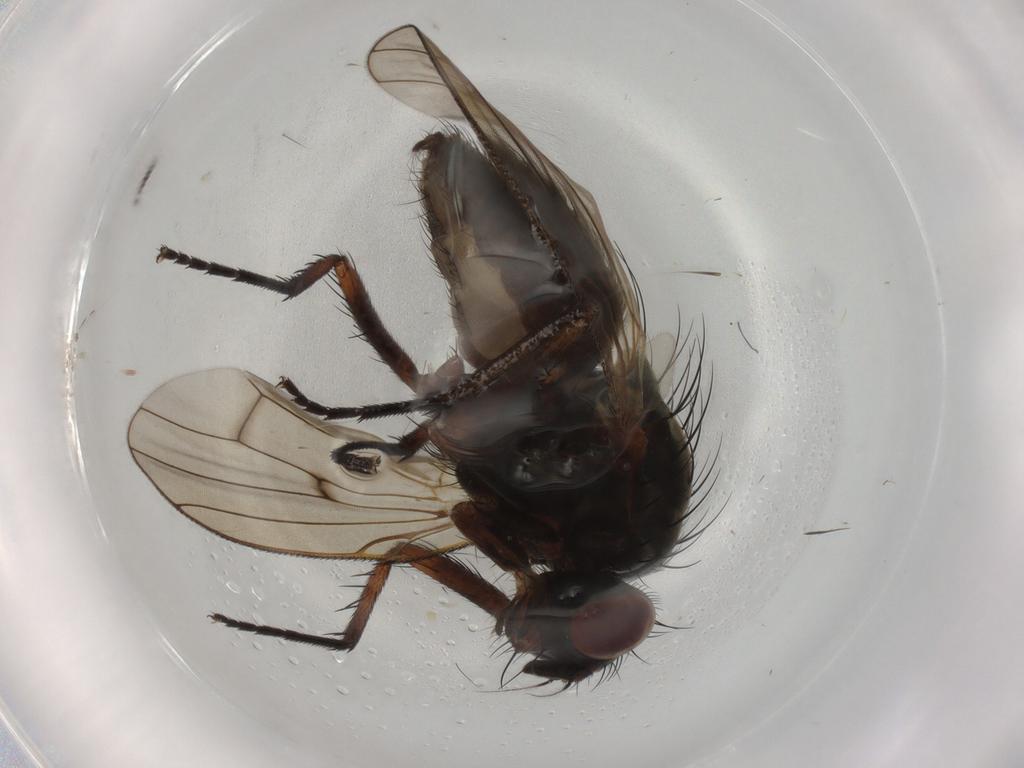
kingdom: Animalia
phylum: Arthropoda
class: Insecta
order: Diptera
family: Anthomyiidae
